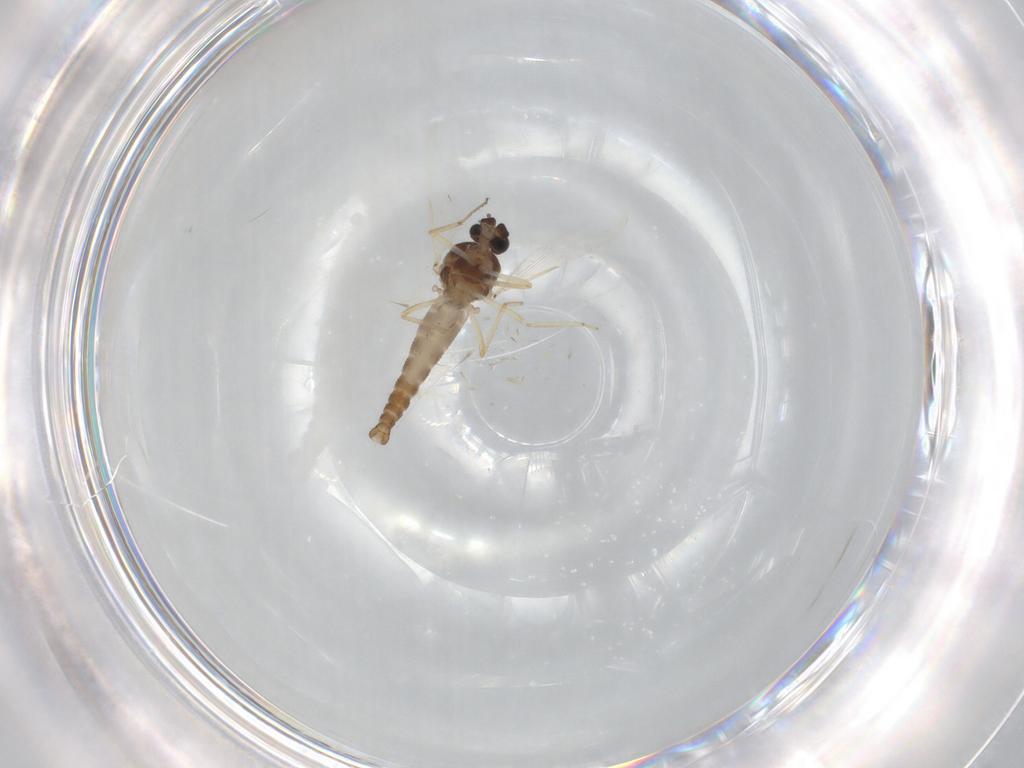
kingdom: Animalia
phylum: Arthropoda
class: Insecta
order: Diptera
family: Ceratopogonidae
